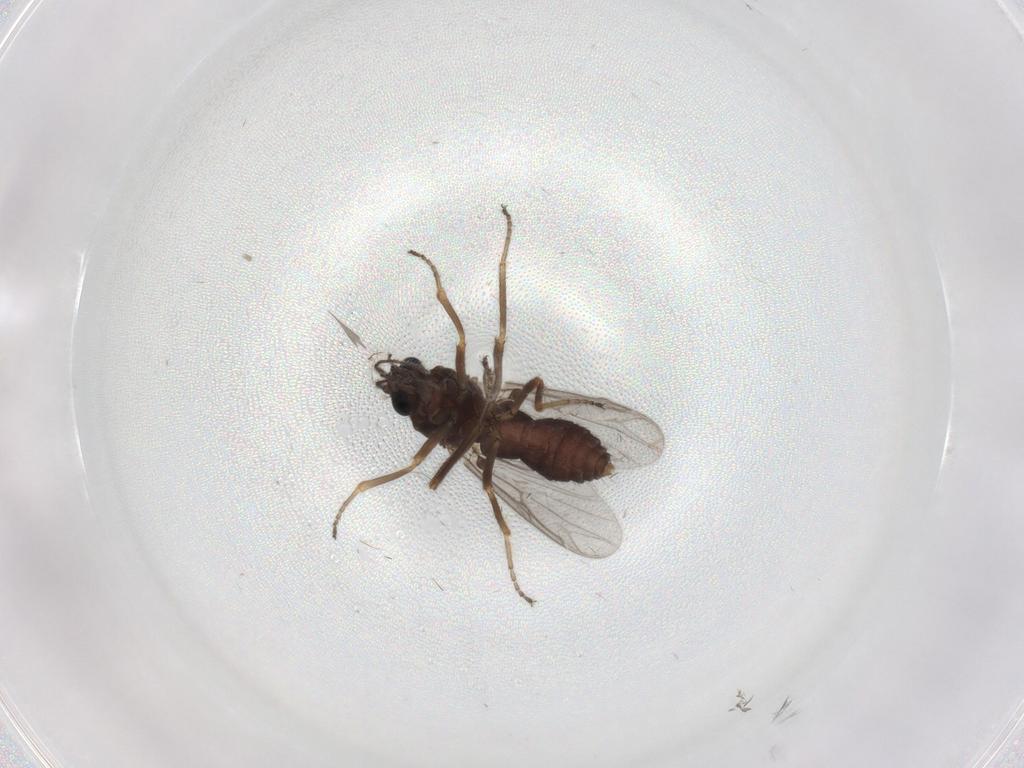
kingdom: Animalia
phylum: Arthropoda
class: Insecta
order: Diptera
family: Ceratopogonidae
